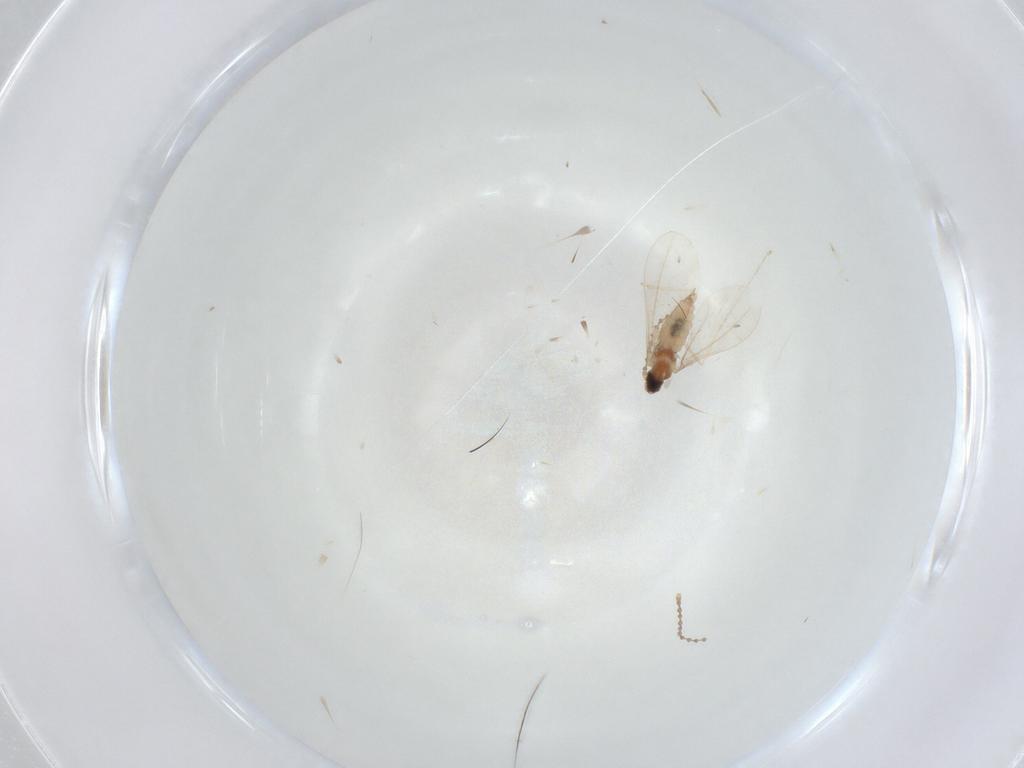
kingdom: Animalia
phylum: Arthropoda
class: Insecta
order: Diptera
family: Cecidomyiidae
